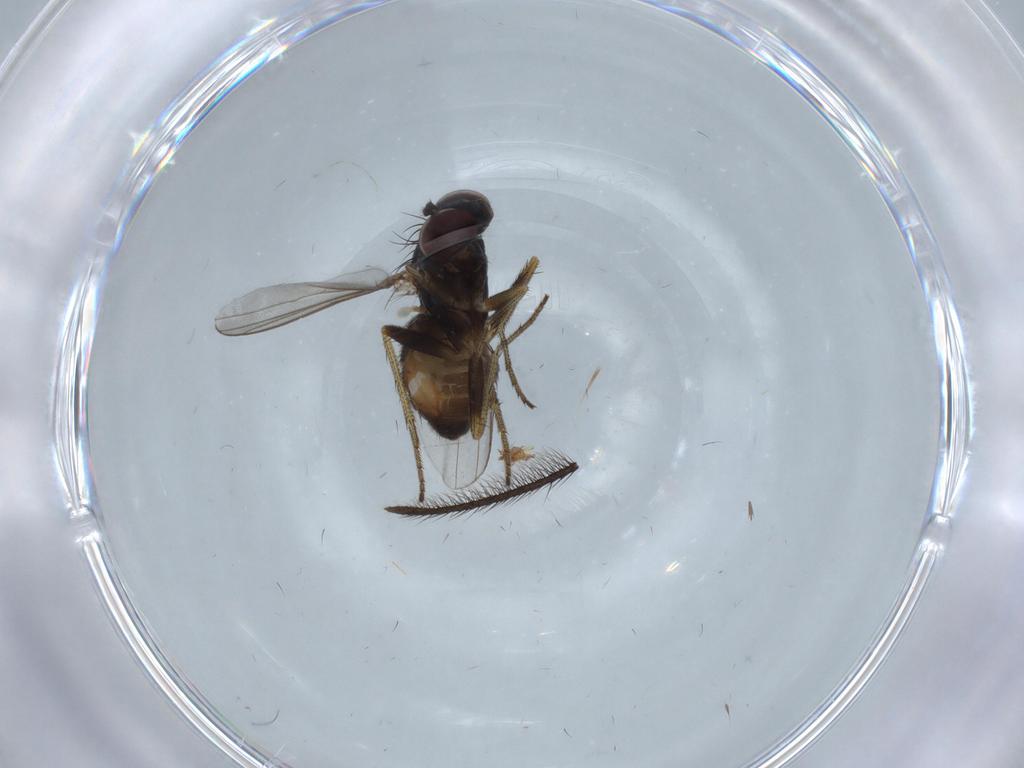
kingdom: Animalia
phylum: Arthropoda
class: Insecta
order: Diptera
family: Dolichopodidae
